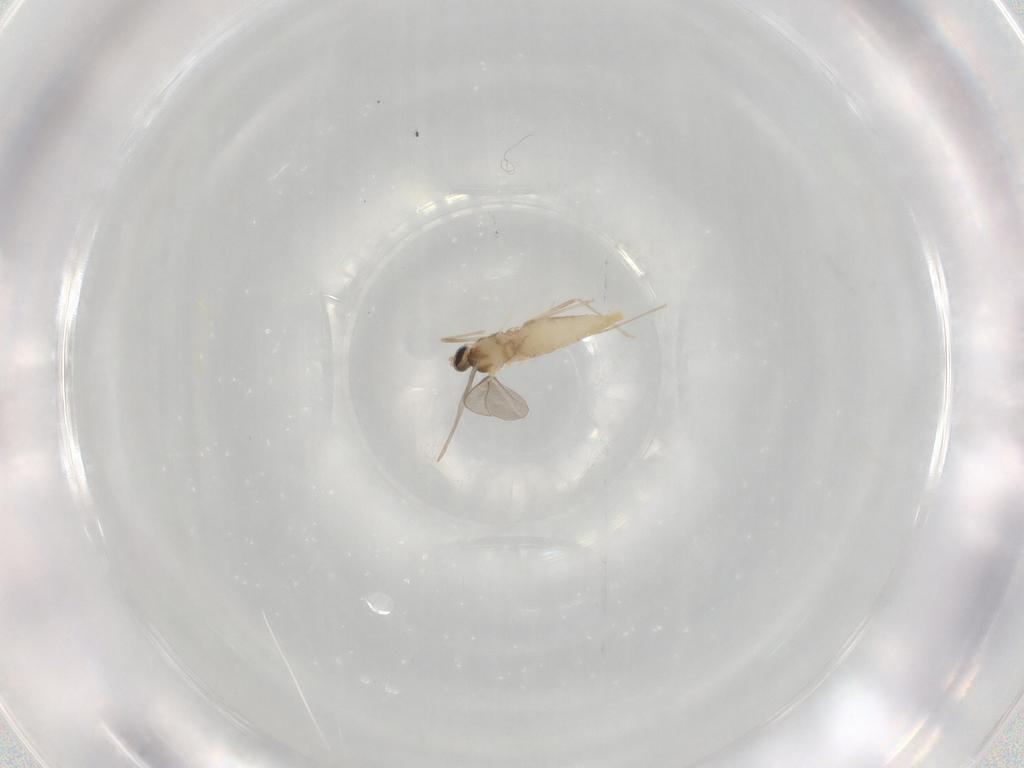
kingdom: Animalia
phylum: Arthropoda
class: Insecta
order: Diptera
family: Cecidomyiidae
